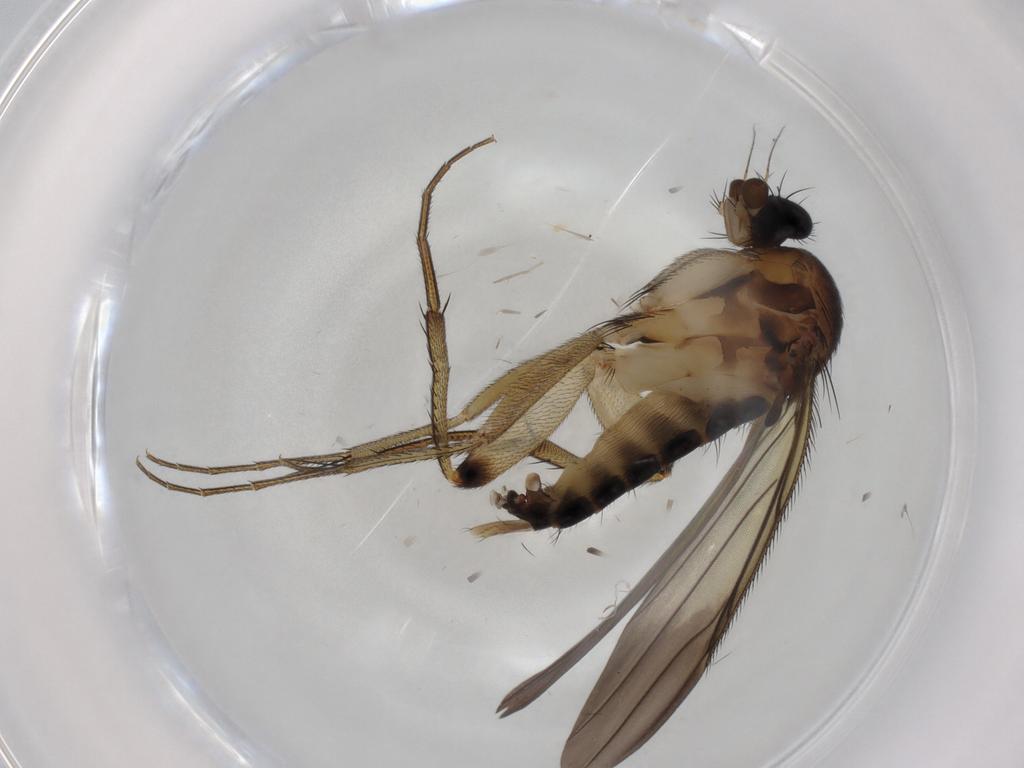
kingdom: Animalia
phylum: Arthropoda
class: Insecta
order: Diptera
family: Phoridae
